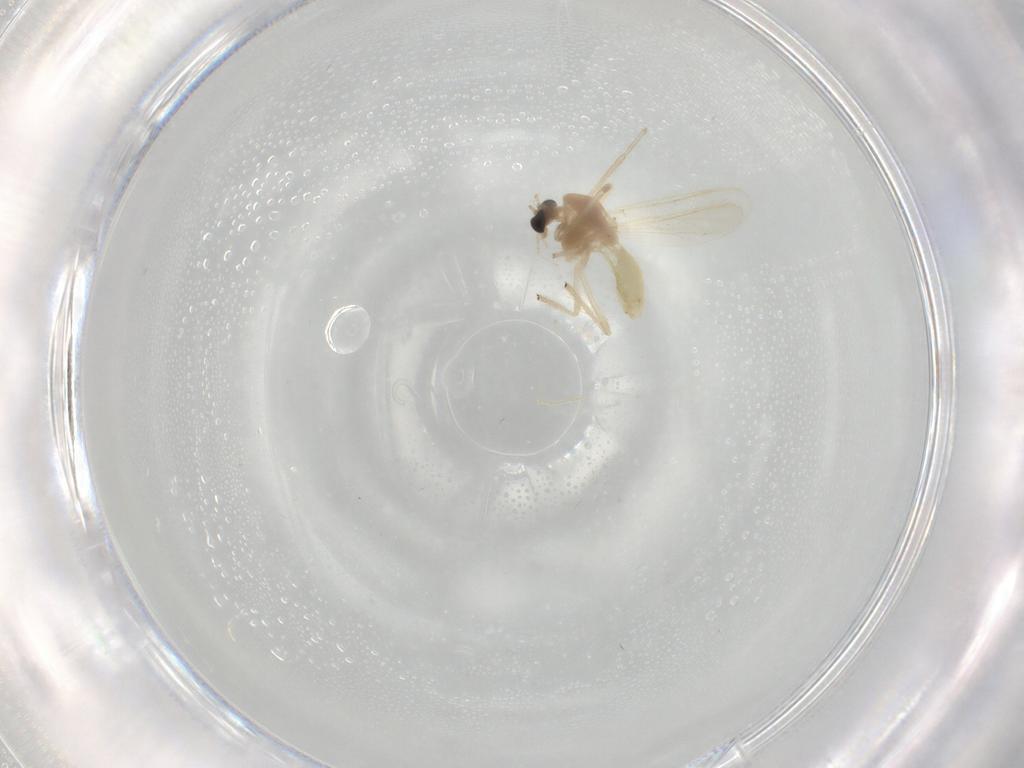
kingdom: Animalia
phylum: Arthropoda
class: Insecta
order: Diptera
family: Chironomidae
